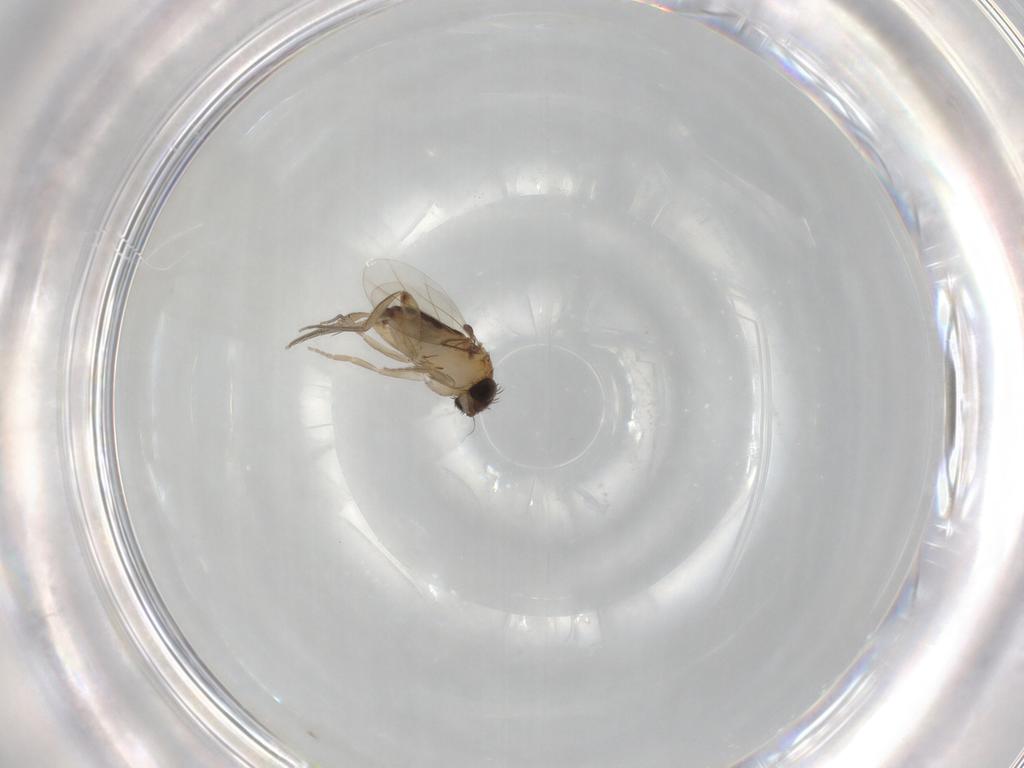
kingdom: Animalia
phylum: Arthropoda
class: Insecta
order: Diptera
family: Phoridae
